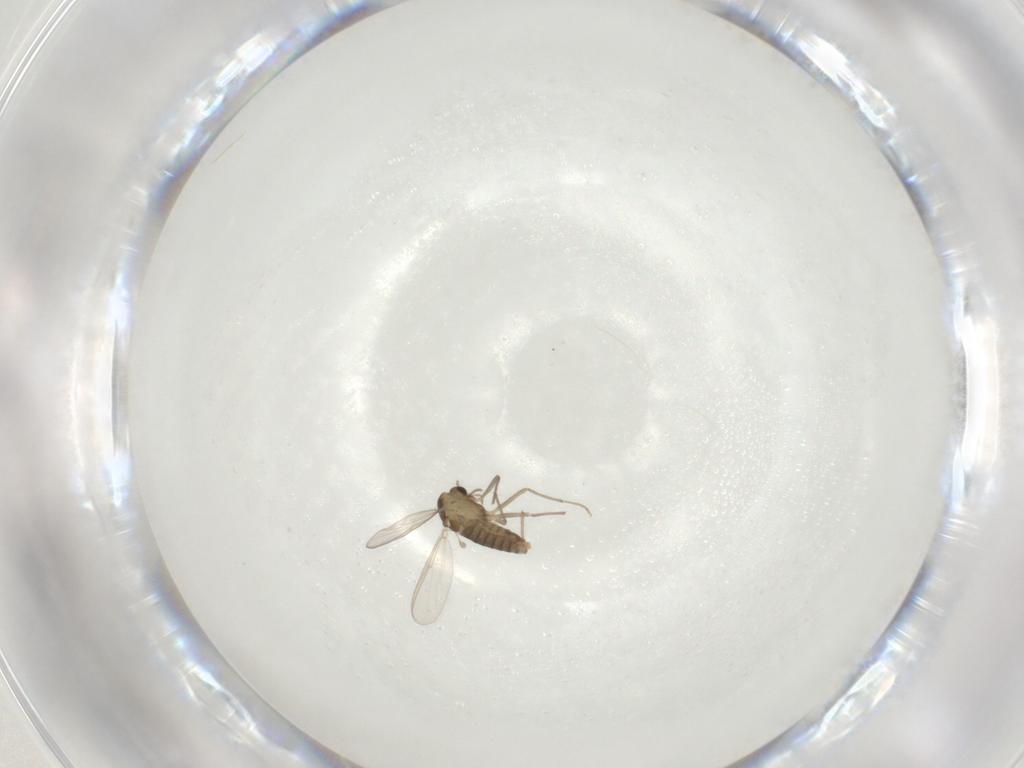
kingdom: Animalia
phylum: Arthropoda
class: Insecta
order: Diptera
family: Chironomidae
